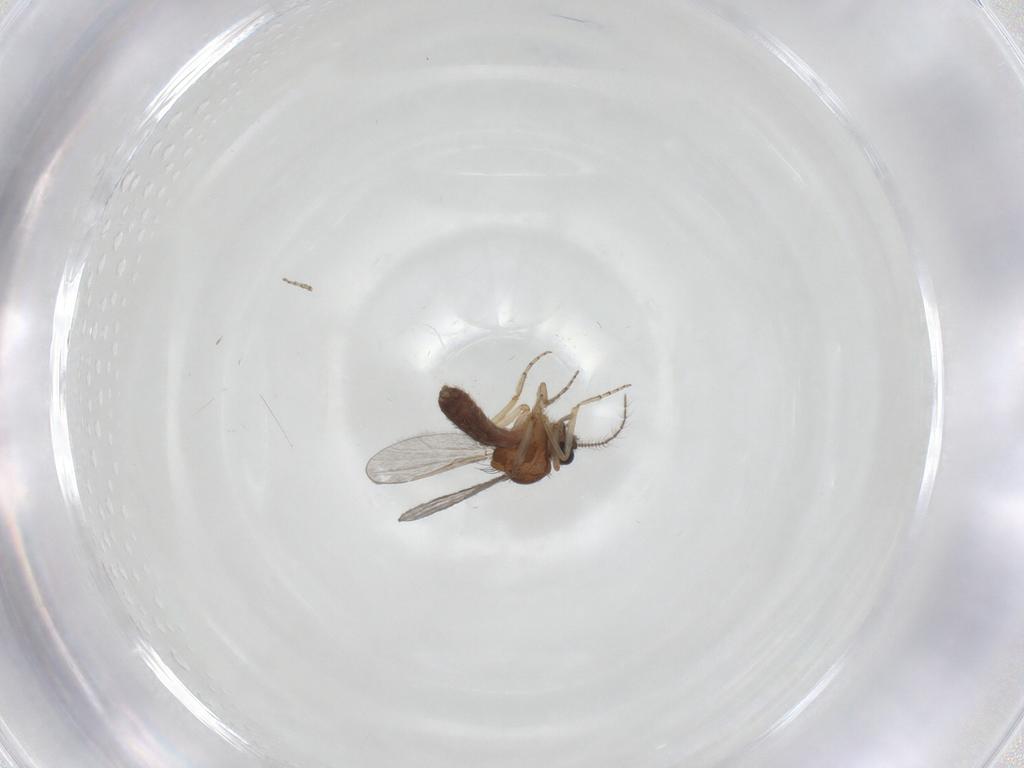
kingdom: Animalia
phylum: Arthropoda
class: Insecta
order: Diptera
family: Ceratopogonidae
